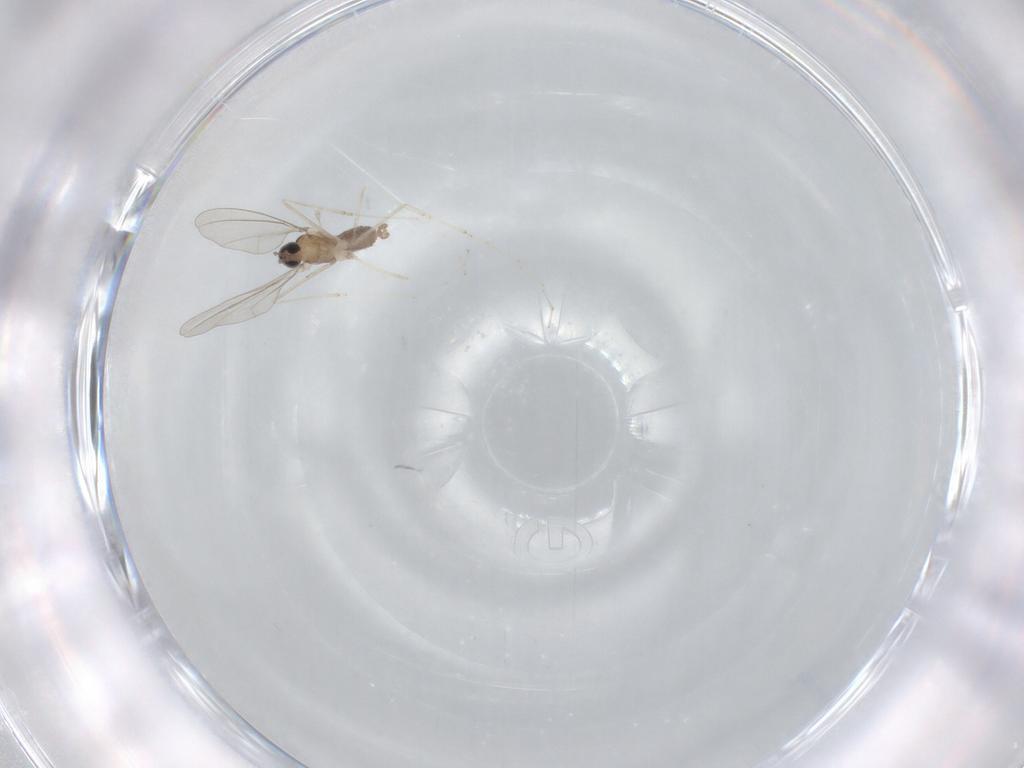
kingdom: Animalia
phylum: Arthropoda
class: Insecta
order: Diptera
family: Cecidomyiidae
